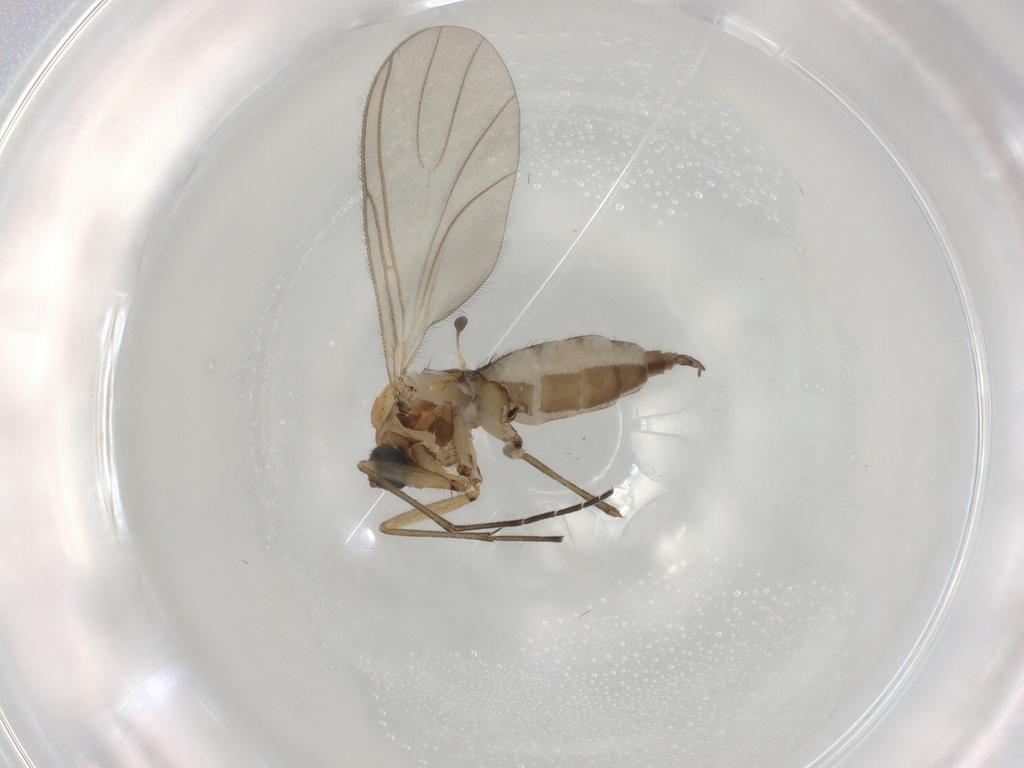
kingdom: Animalia
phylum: Arthropoda
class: Insecta
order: Diptera
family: Sciaridae
